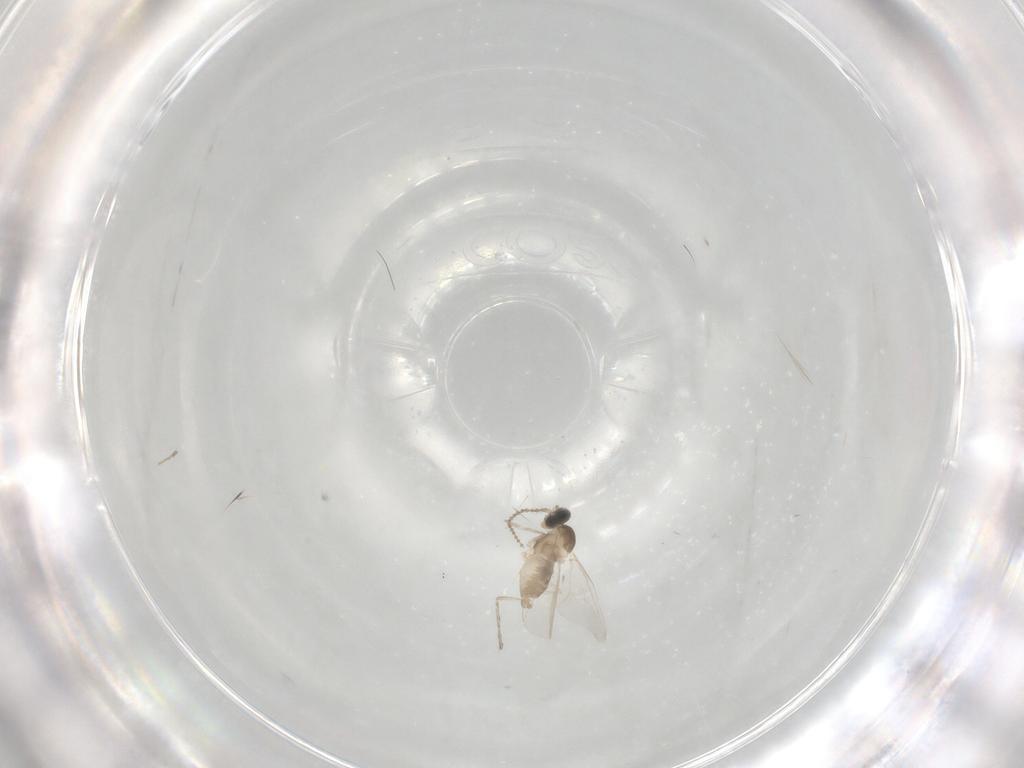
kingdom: Animalia
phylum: Arthropoda
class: Insecta
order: Diptera
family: Cecidomyiidae
